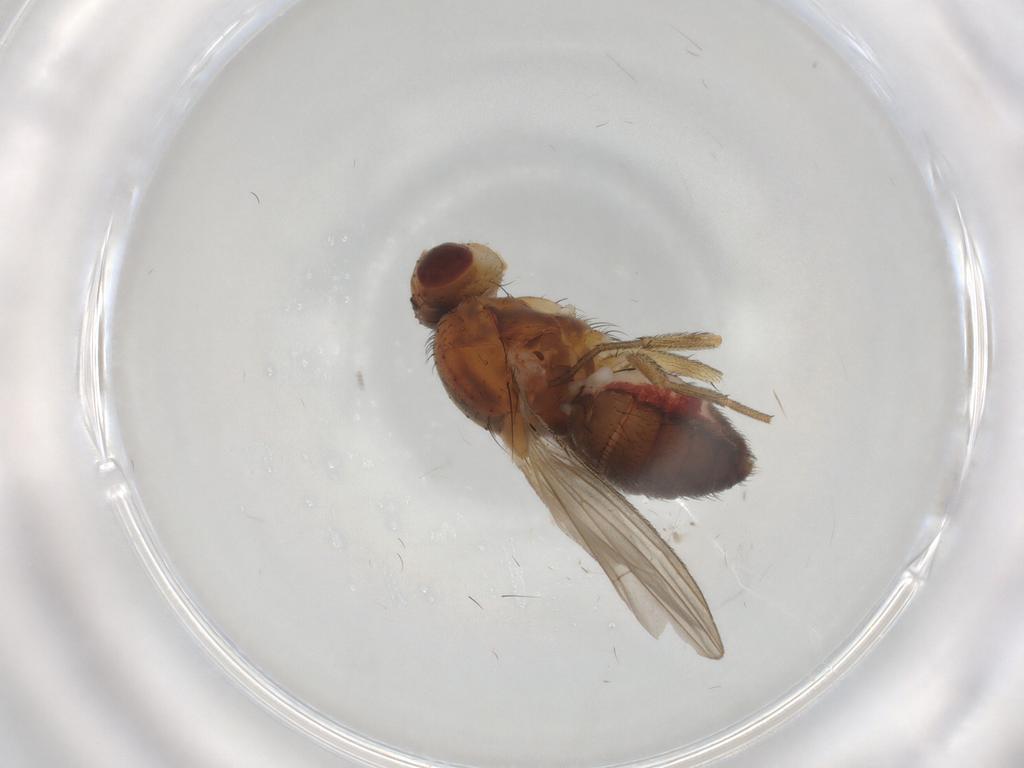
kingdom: Animalia
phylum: Arthropoda
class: Insecta
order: Diptera
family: Heleomyzidae
